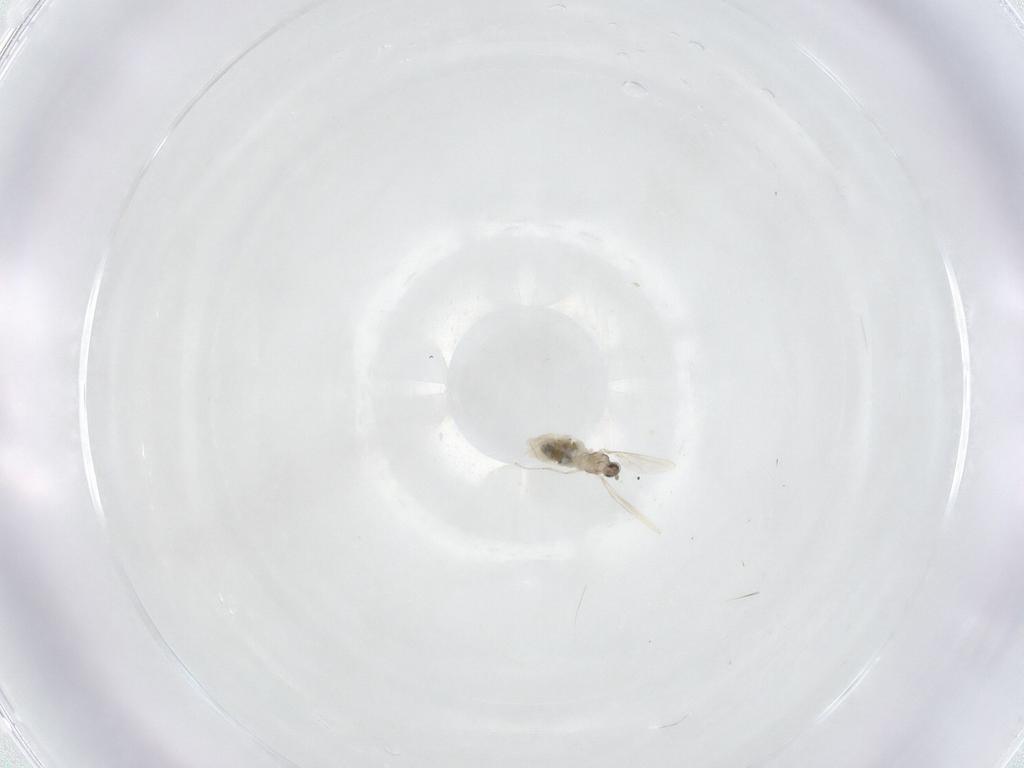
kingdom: Animalia
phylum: Arthropoda
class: Insecta
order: Diptera
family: Cecidomyiidae
